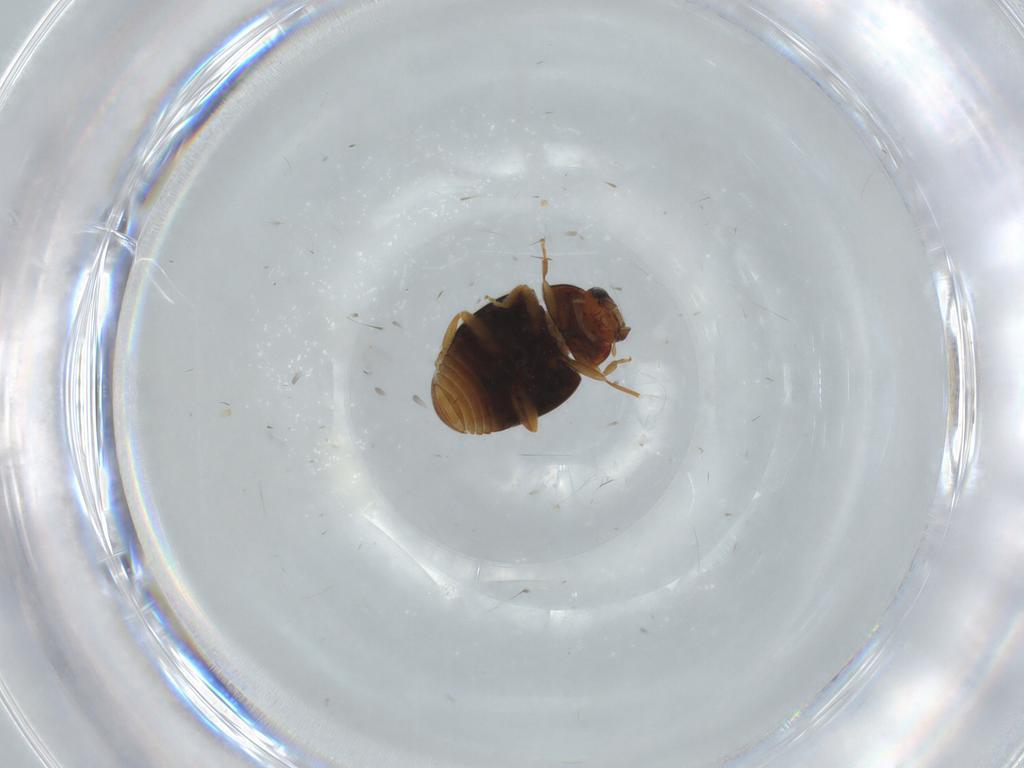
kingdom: Animalia
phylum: Arthropoda
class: Insecta
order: Coleoptera
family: Coccinellidae
